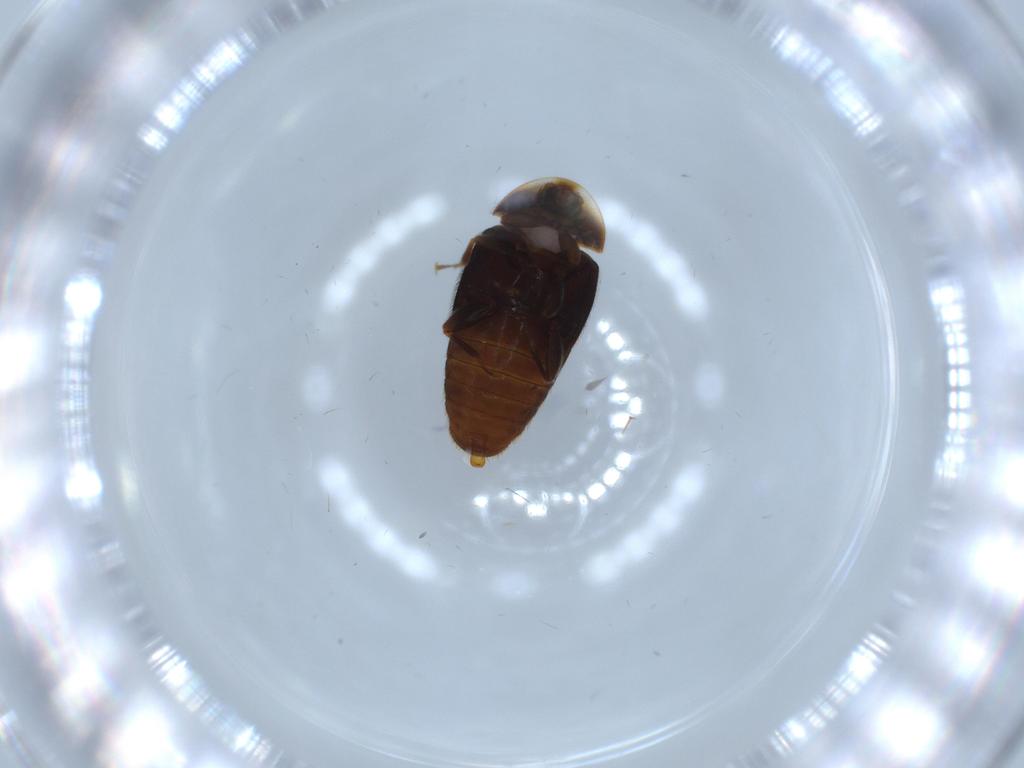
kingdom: Animalia
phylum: Arthropoda
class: Insecta
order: Coleoptera
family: Corylophidae
